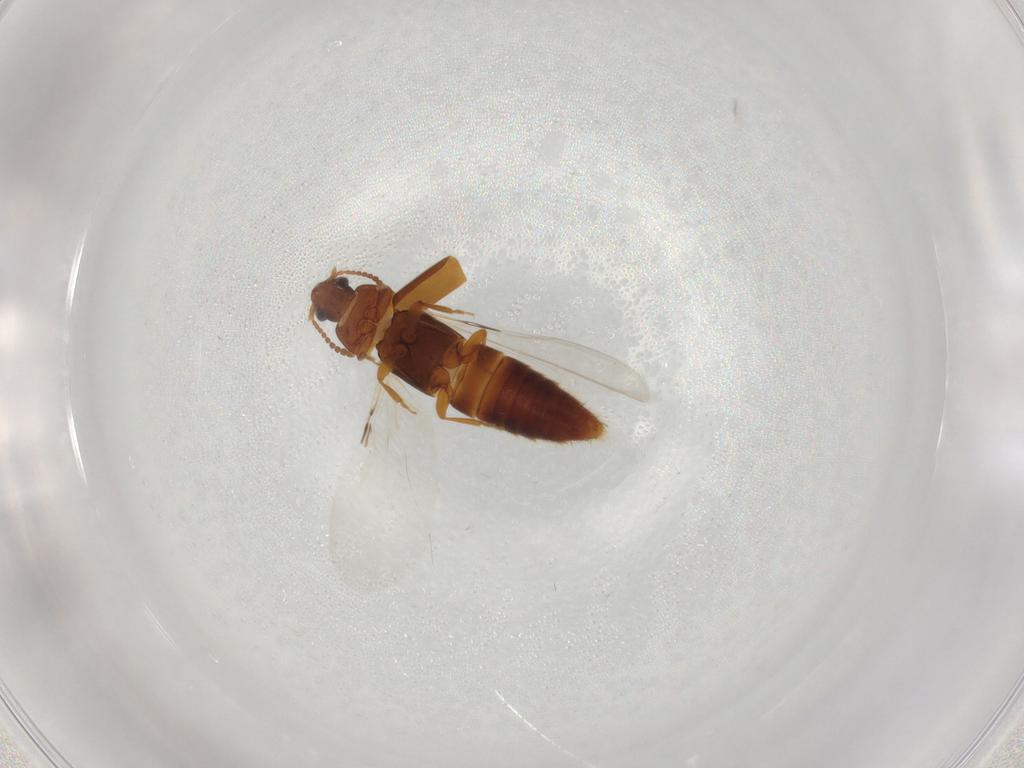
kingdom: Animalia
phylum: Arthropoda
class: Insecta
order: Coleoptera
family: Staphylinidae
